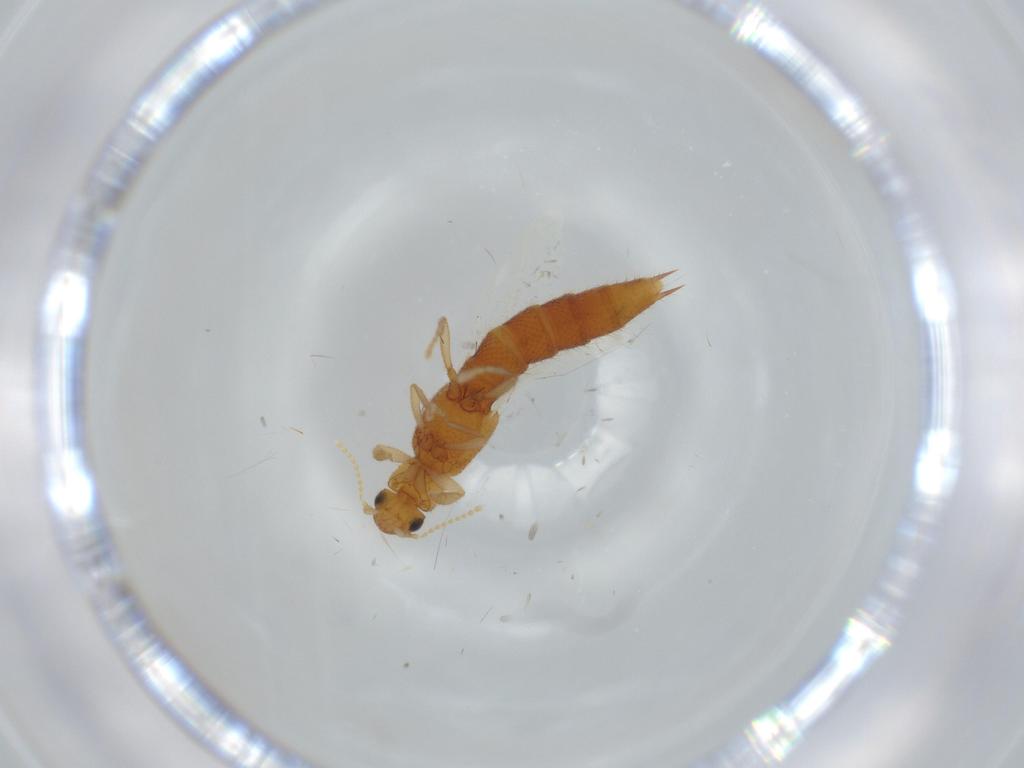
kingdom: Animalia
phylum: Arthropoda
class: Insecta
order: Coleoptera
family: Staphylinidae
